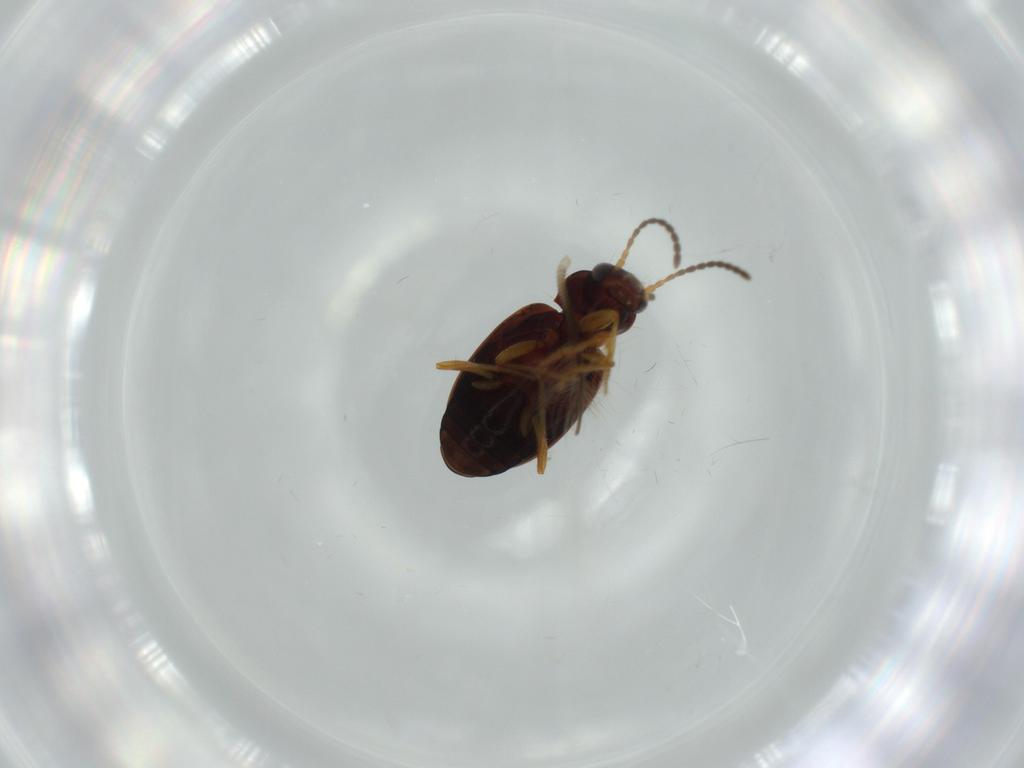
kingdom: Animalia
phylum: Arthropoda
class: Insecta
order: Coleoptera
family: Carabidae
